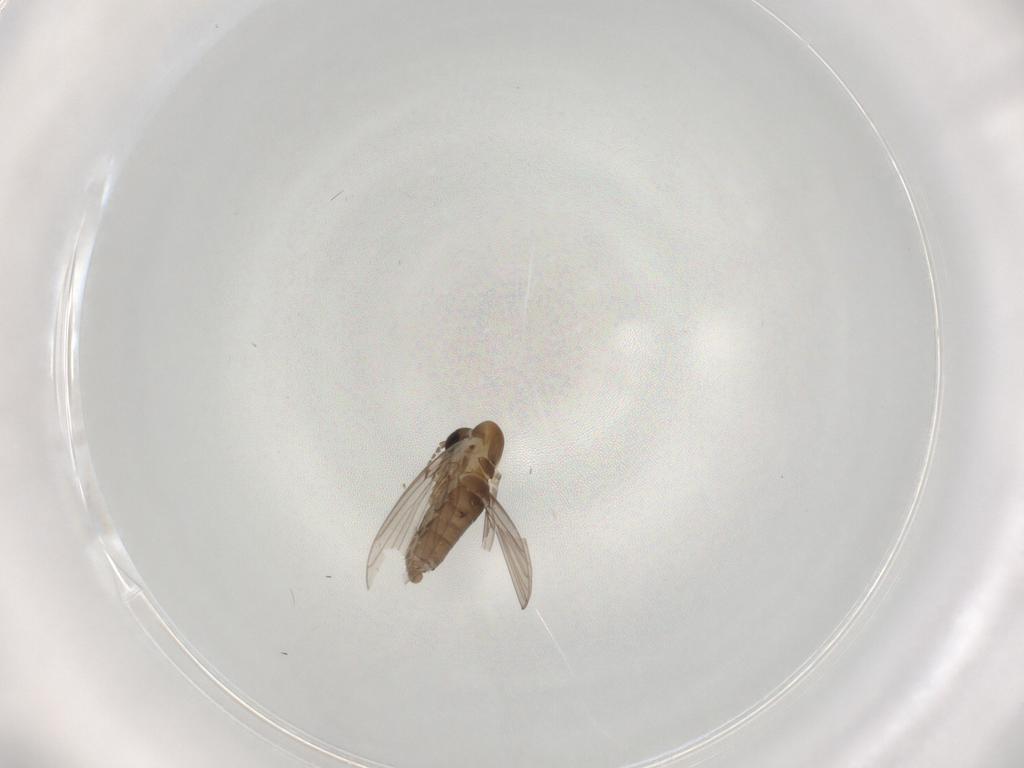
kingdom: Animalia
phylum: Arthropoda
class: Insecta
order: Diptera
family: Psychodidae
